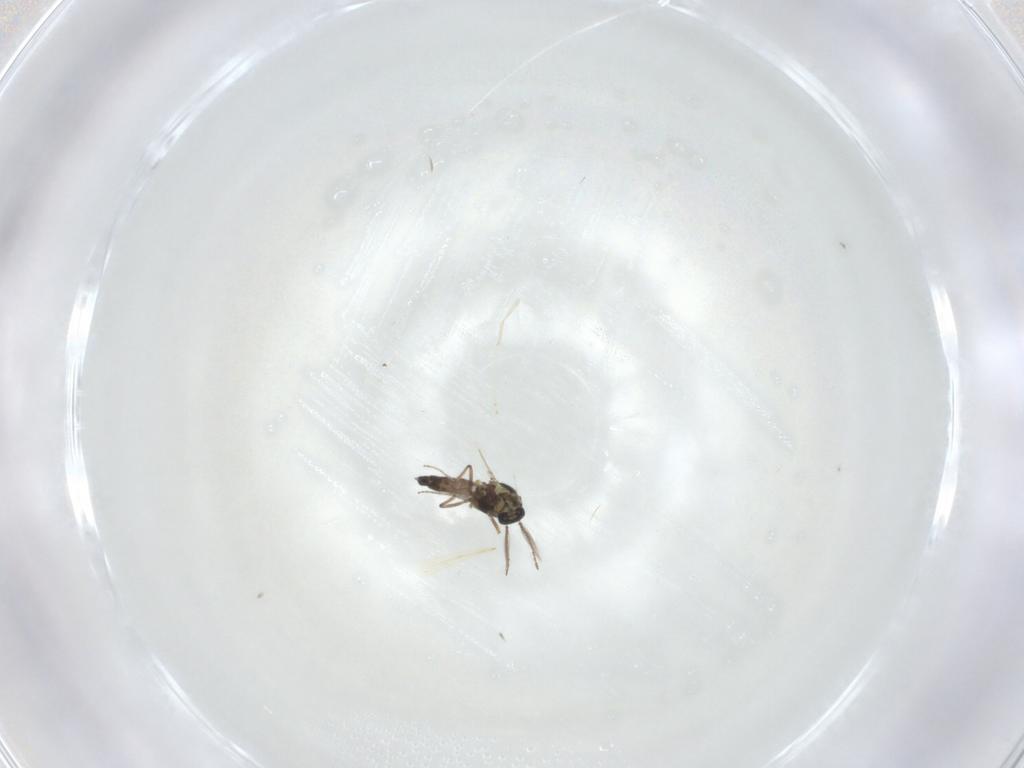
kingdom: Animalia
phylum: Arthropoda
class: Insecta
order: Diptera
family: Ceratopogonidae
